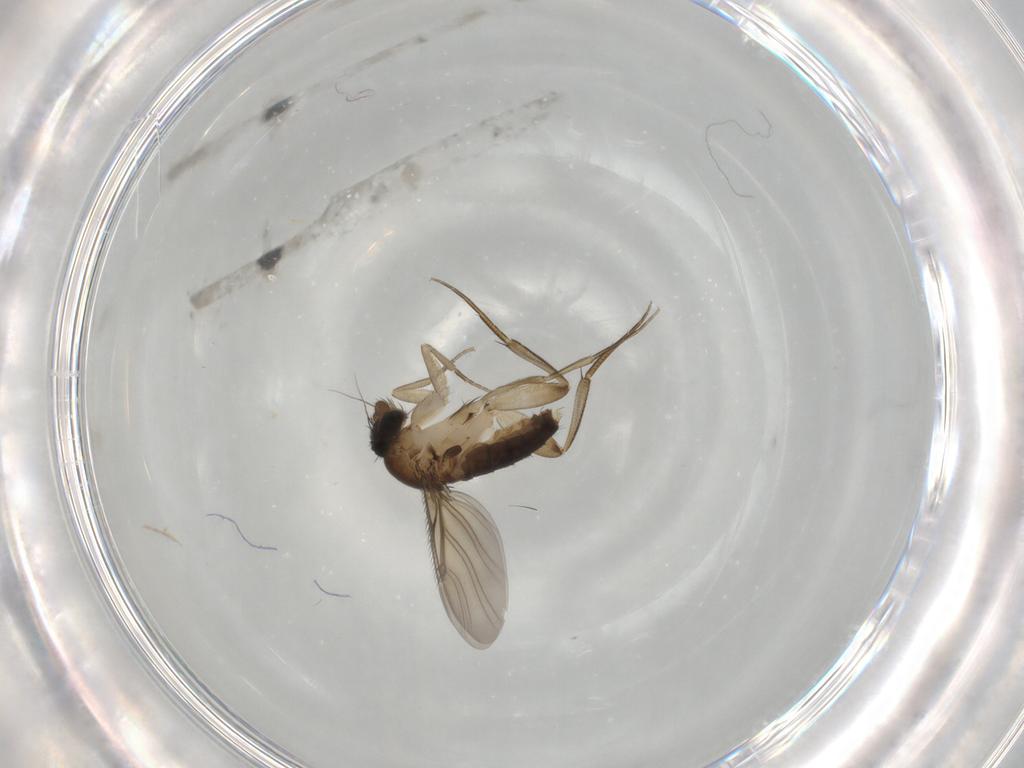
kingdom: Animalia
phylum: Arthropoda
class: Insecta
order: Diptera
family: Phoridae
